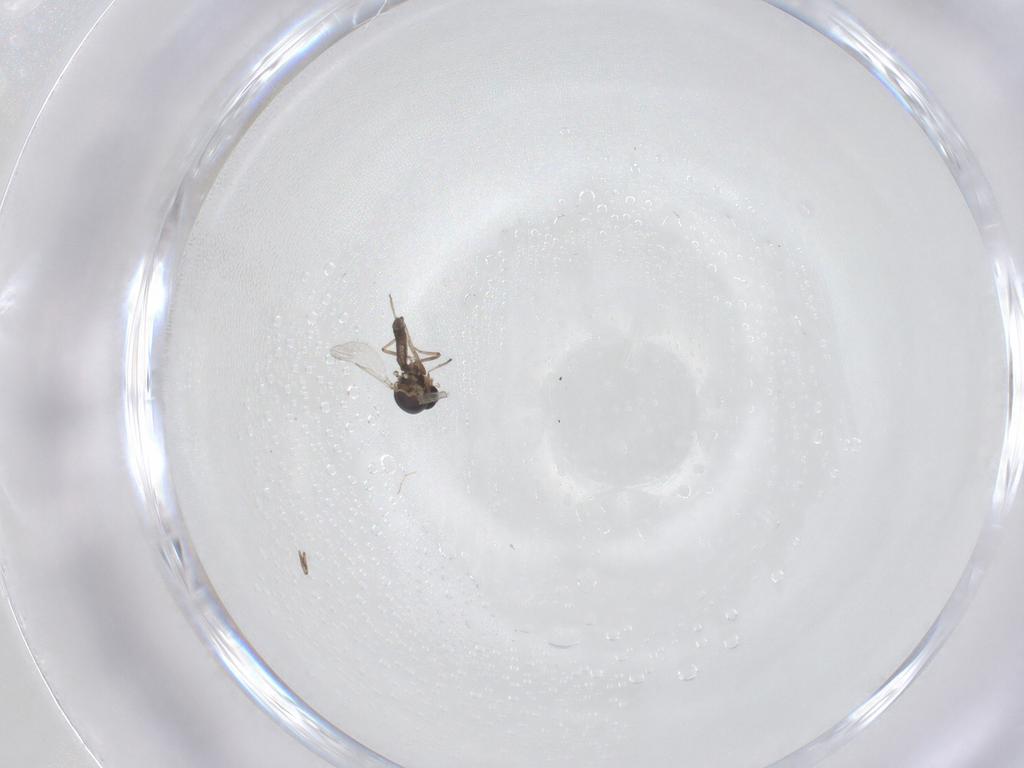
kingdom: Animalia
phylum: Arthropoda
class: Insecta
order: Diptera
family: Ceratopogonidae
